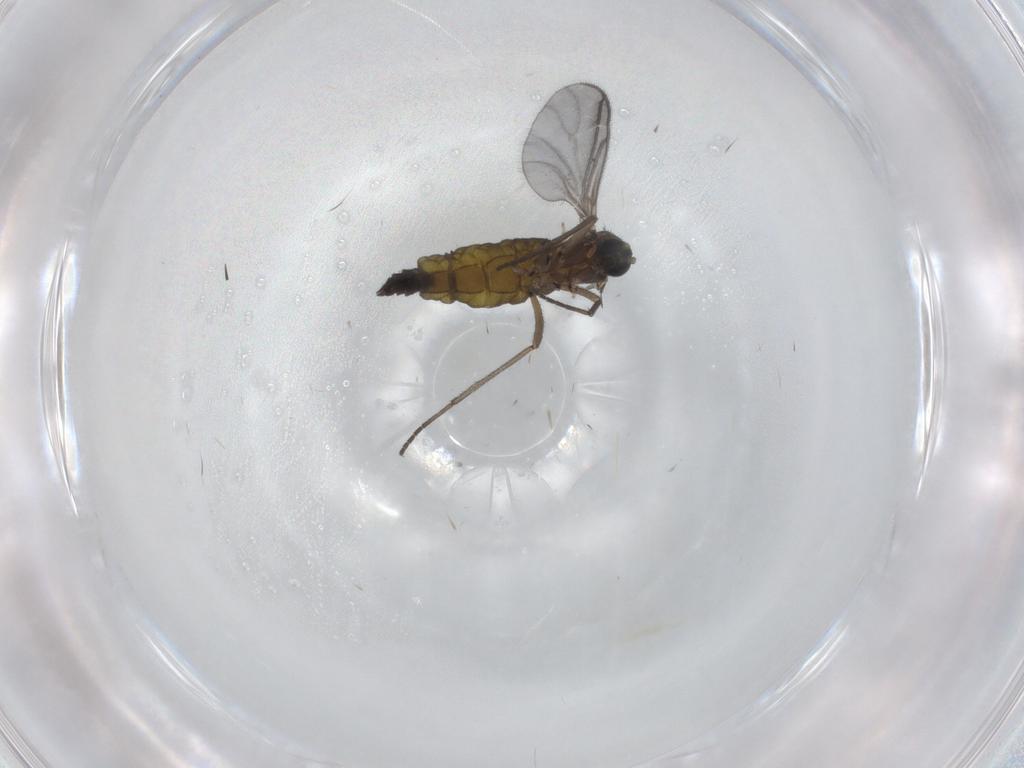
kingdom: Animalia
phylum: Arthropoda
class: Insecta
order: Diptera
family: Sciaridae
